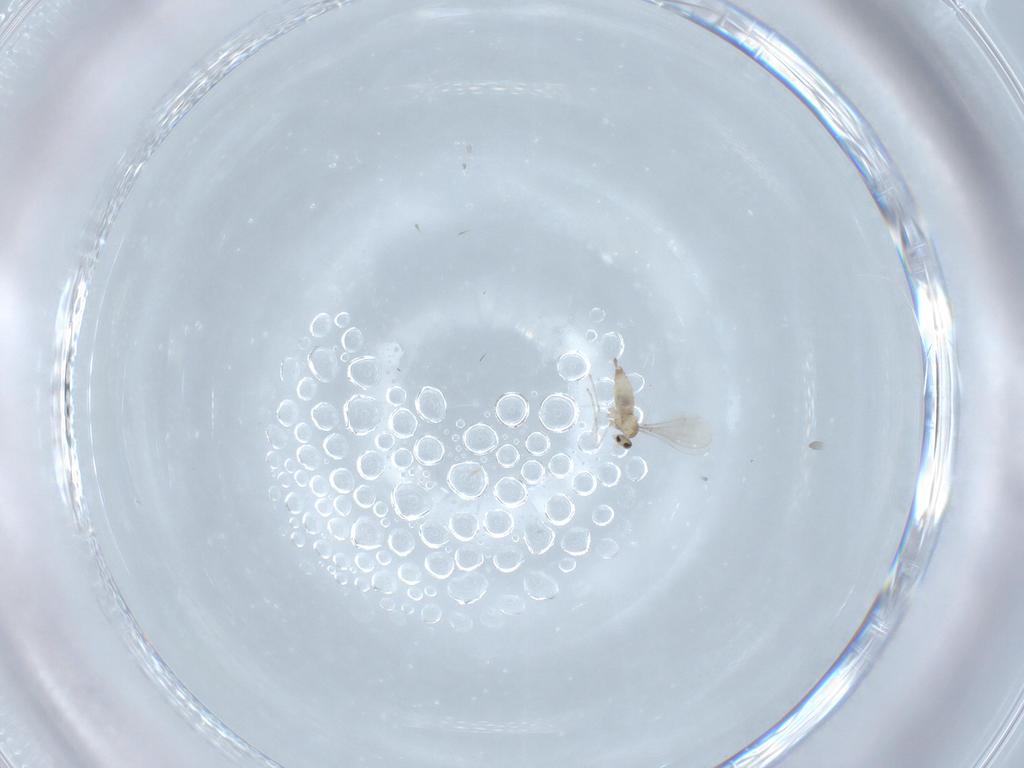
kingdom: Animalia
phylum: Arthropoda
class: Insecta
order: Diptera
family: Cecidomyiidae
